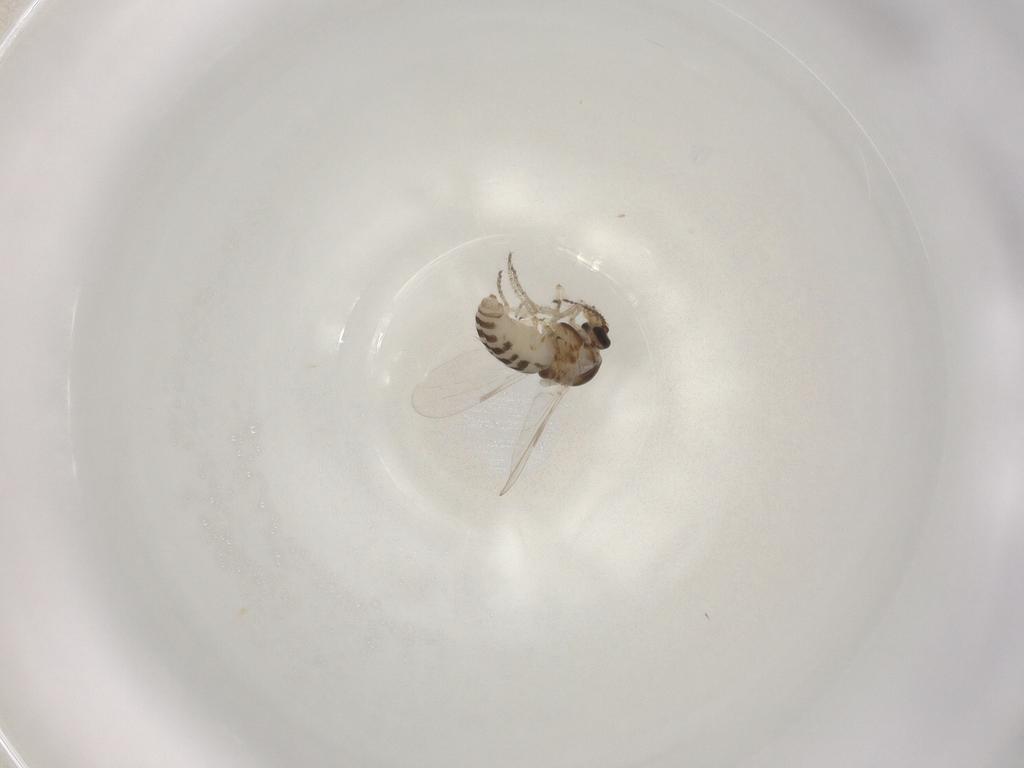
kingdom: Animalia
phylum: Arthropoda
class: Insecta
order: Diptera
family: Ceratopogonidae
